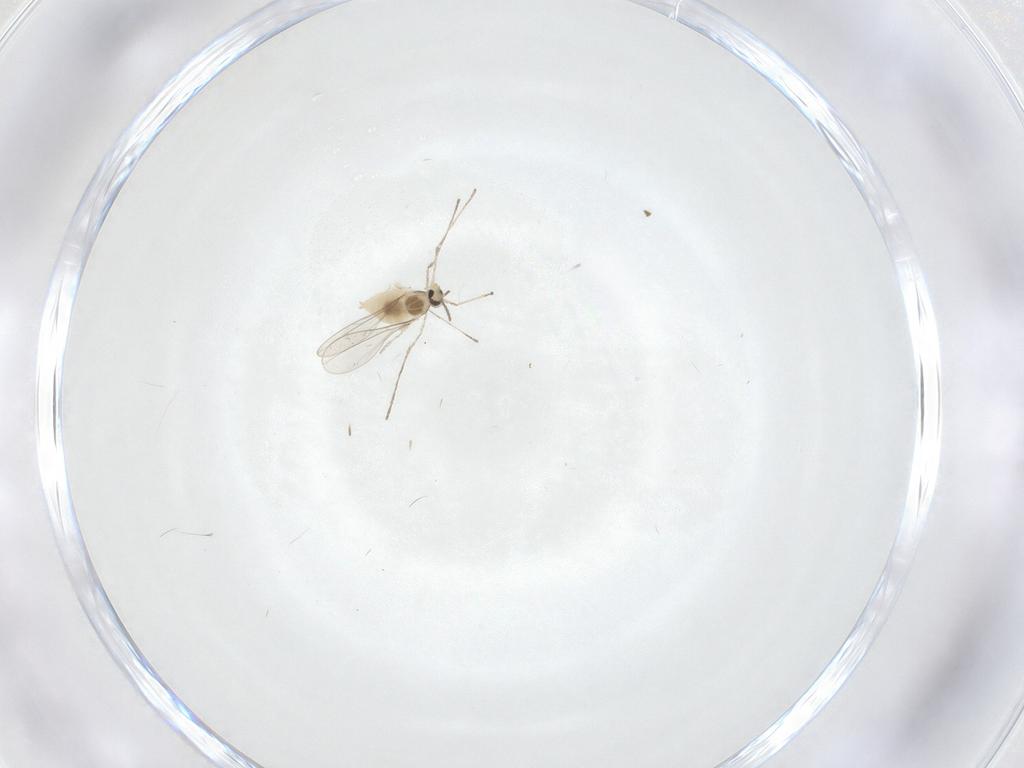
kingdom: Animalia
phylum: Arthropoda
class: Insecta
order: Diptera
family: Cecidomyiidae
